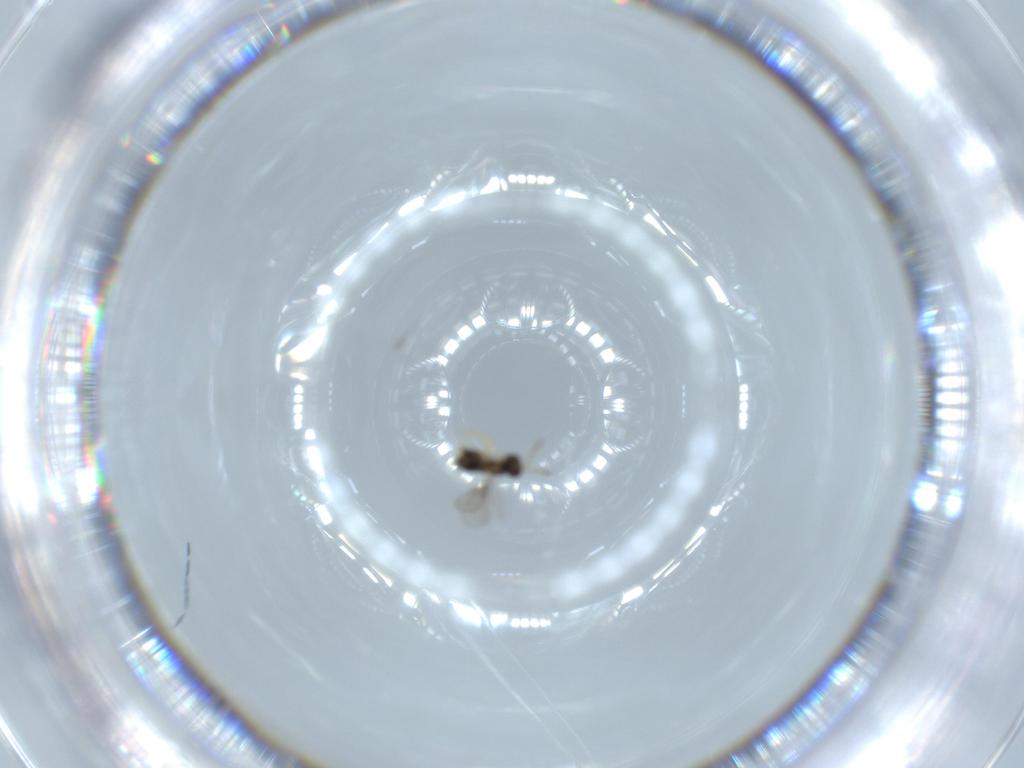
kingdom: Animalia
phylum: Arthropoda
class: Insecta
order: Hymenoptera
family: Aphelinidae
